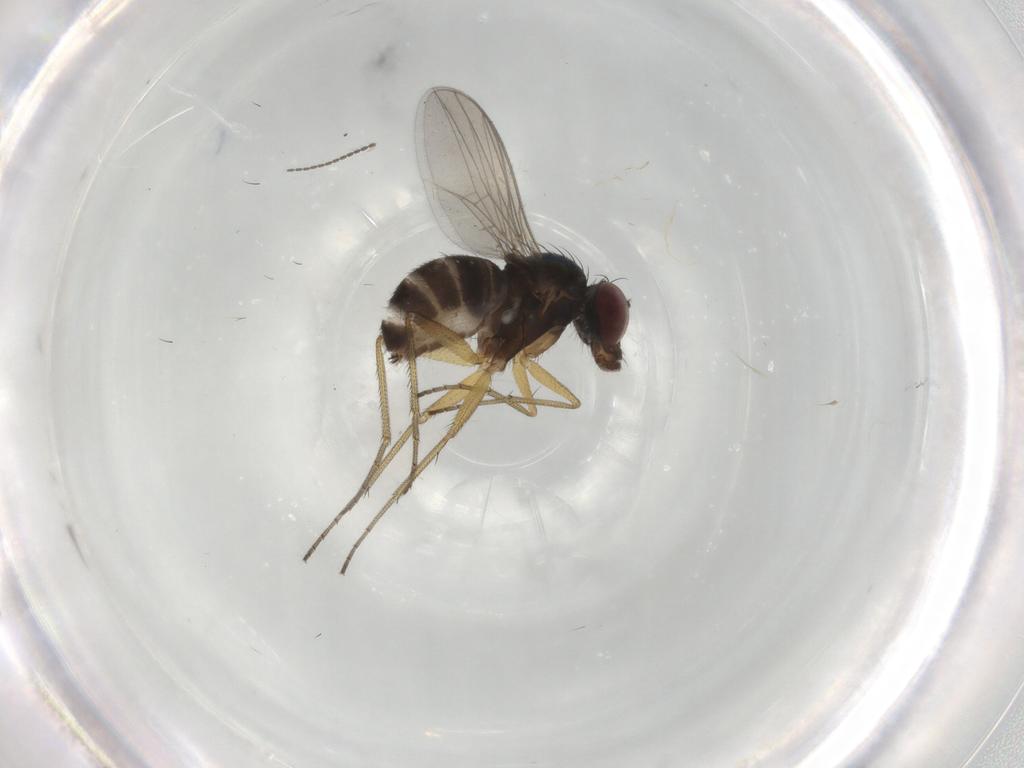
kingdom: Animalia
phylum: Arthropoda
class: Insecta
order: Diptera
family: Dolichopodidae
